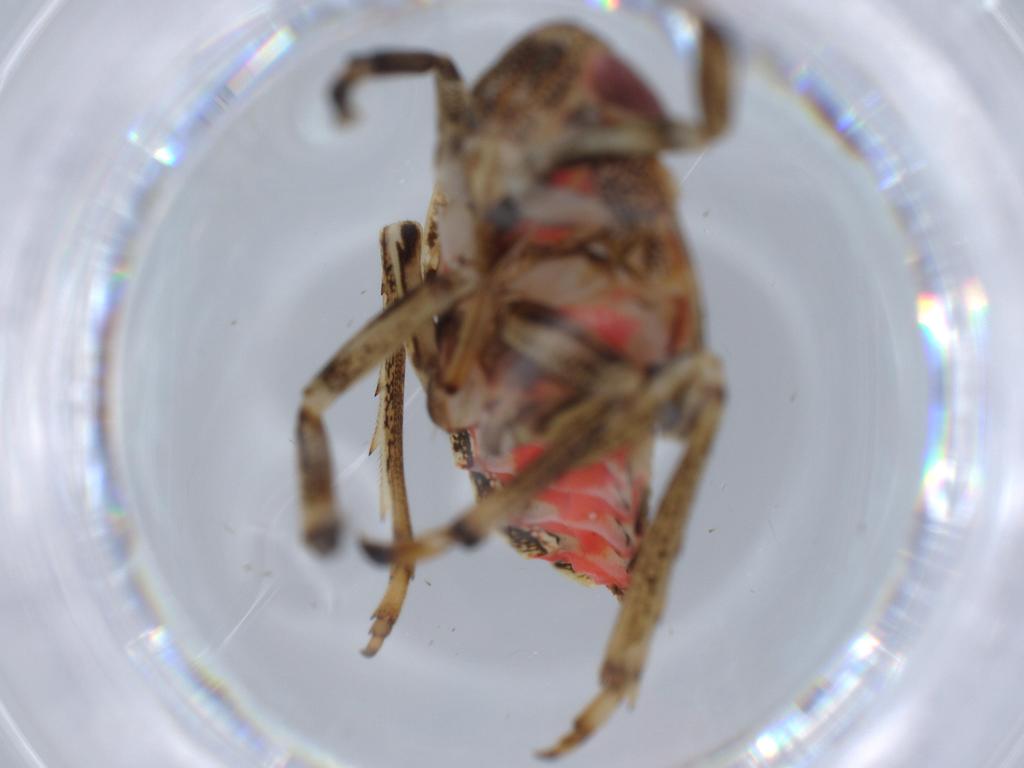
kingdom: Animalia
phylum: Arthropoda
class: Insecta
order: Hemiptera
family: Issidae
